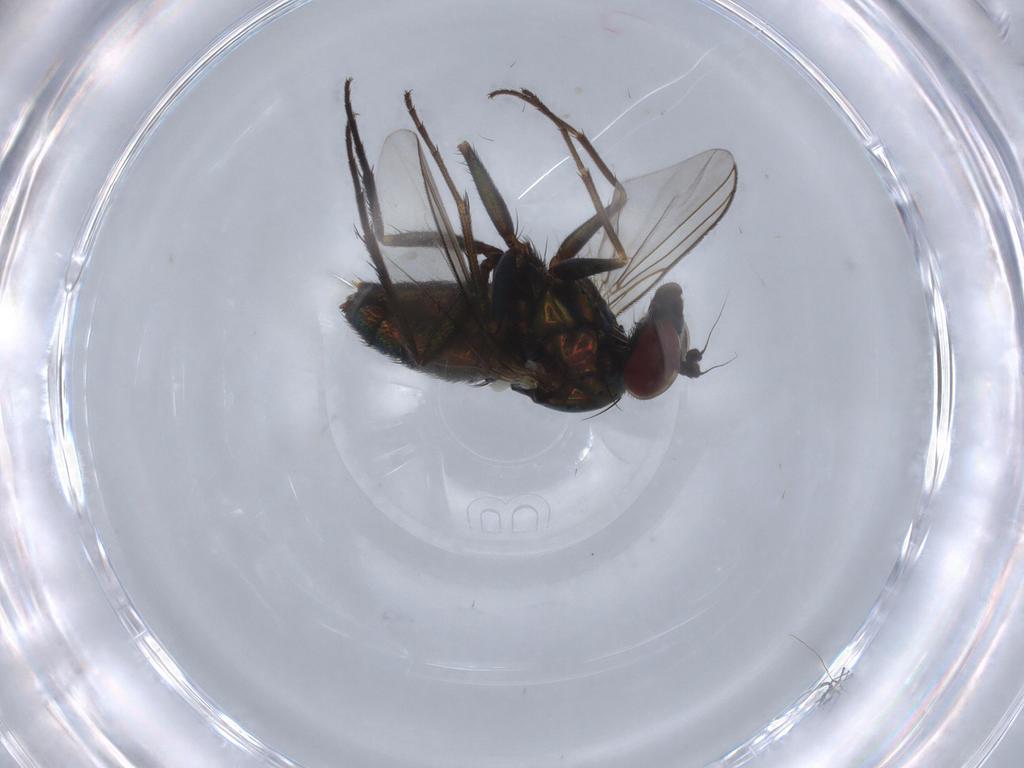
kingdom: Animalia
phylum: Arthropoda
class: Insecta
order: Diptera
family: Dolichopodidae
